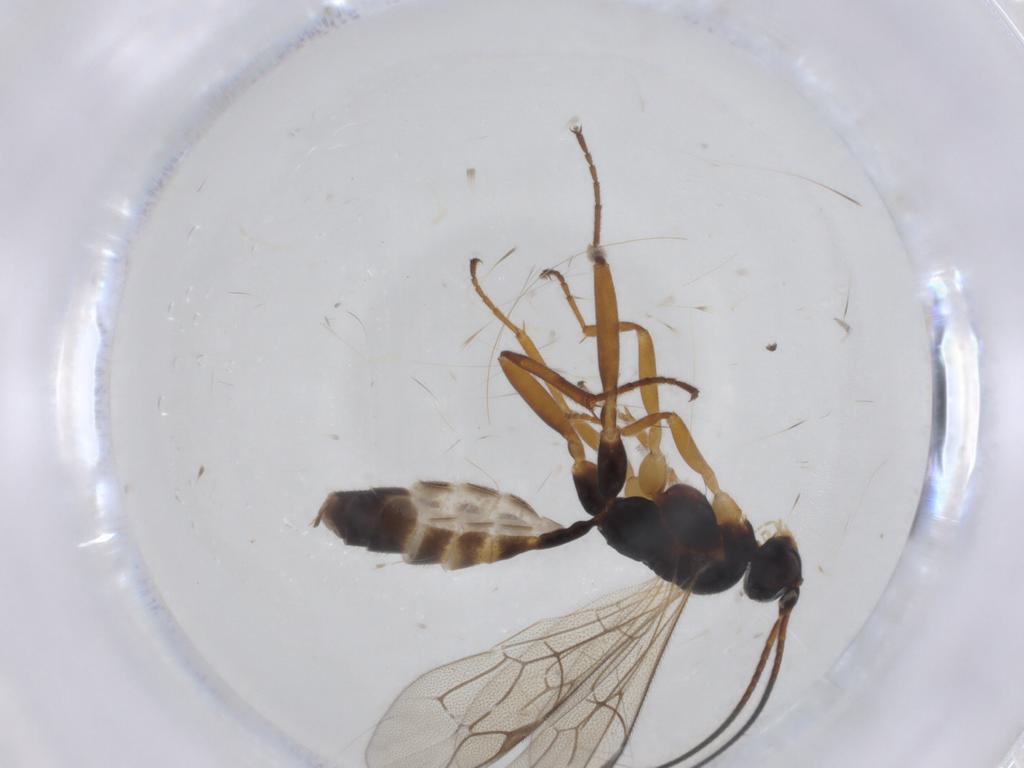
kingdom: Animalia
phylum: Arthropoda
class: Insecta
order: Hymenoptera
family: Ichneumonidae
